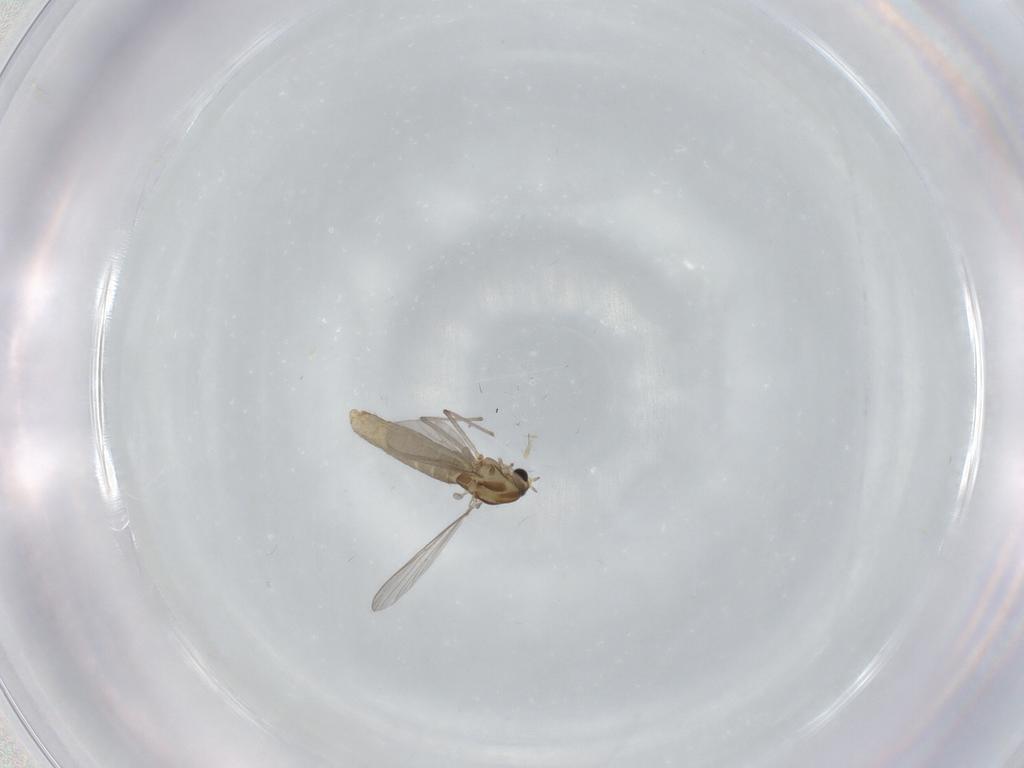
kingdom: Animalia
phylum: Arthropoda
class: Insecta
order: Diptera
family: Chironomidae
